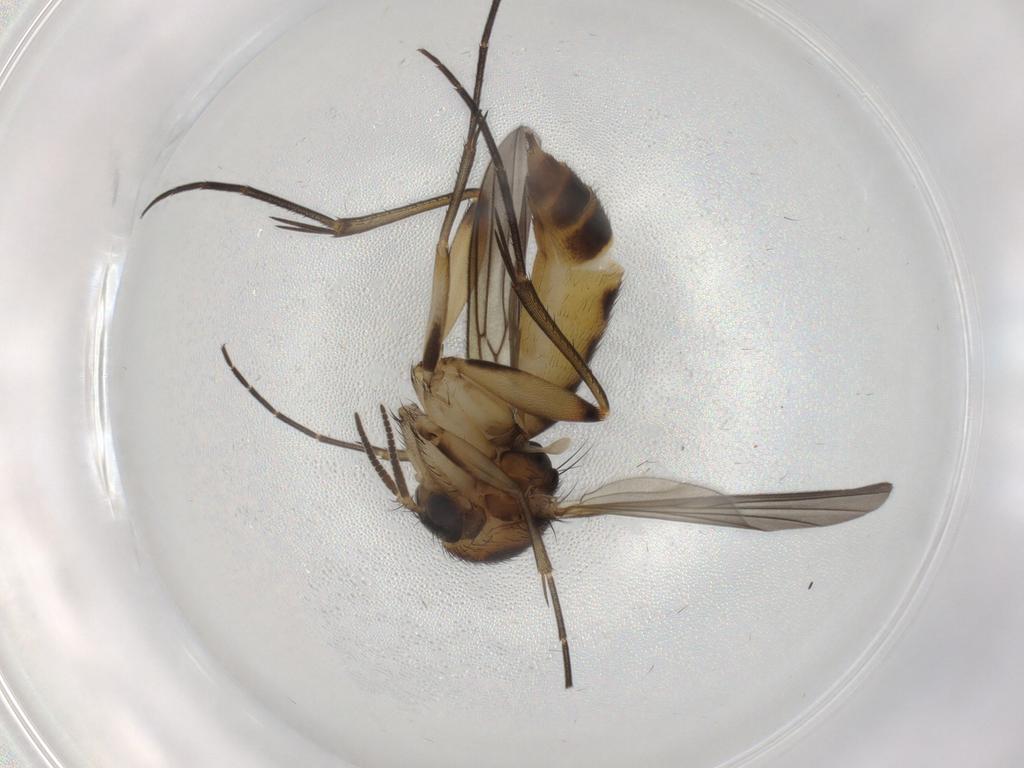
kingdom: Animalia
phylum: Arthropoda
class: Insecta
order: Diptera
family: Mycetophilidae
